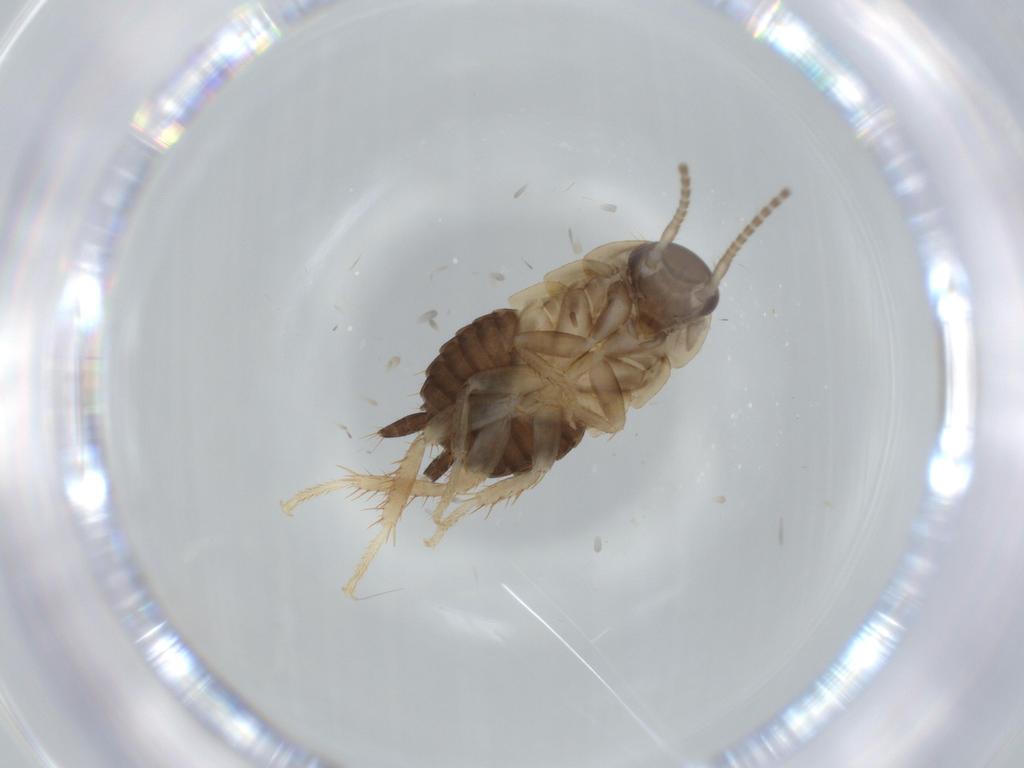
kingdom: Animalia
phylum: Arthropoda
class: Insecta
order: Blattodea
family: Ectobiidae
